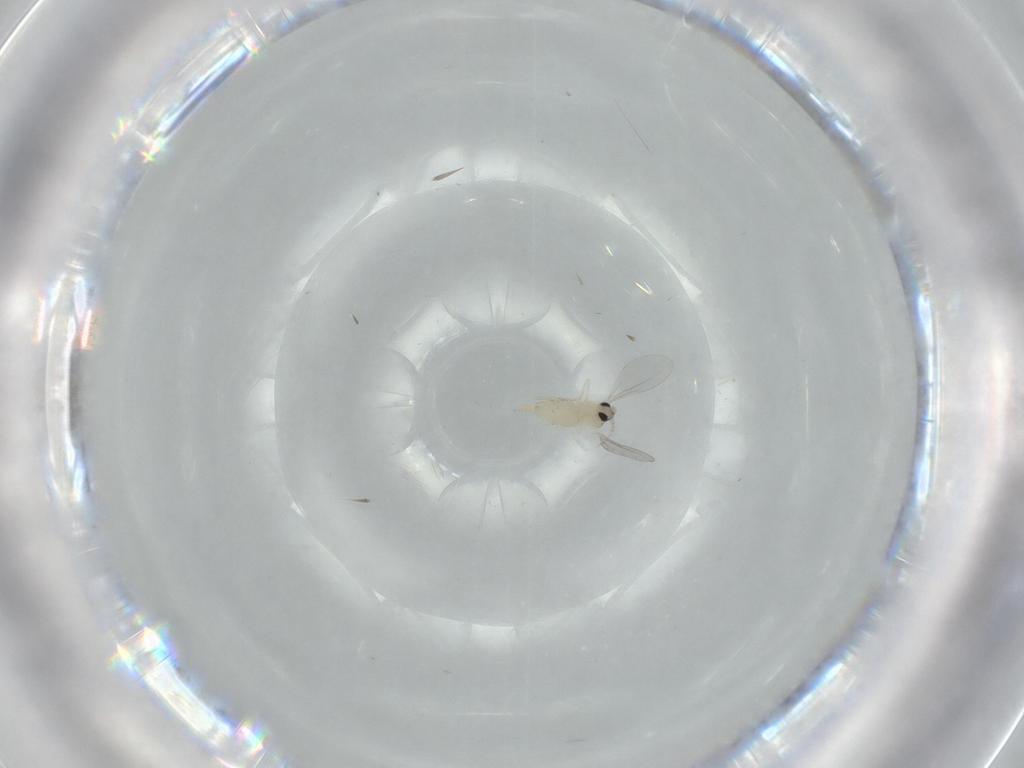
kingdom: Animalia
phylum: Arthropoda
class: Insecta
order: Diptera
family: Cecidomyiidae
